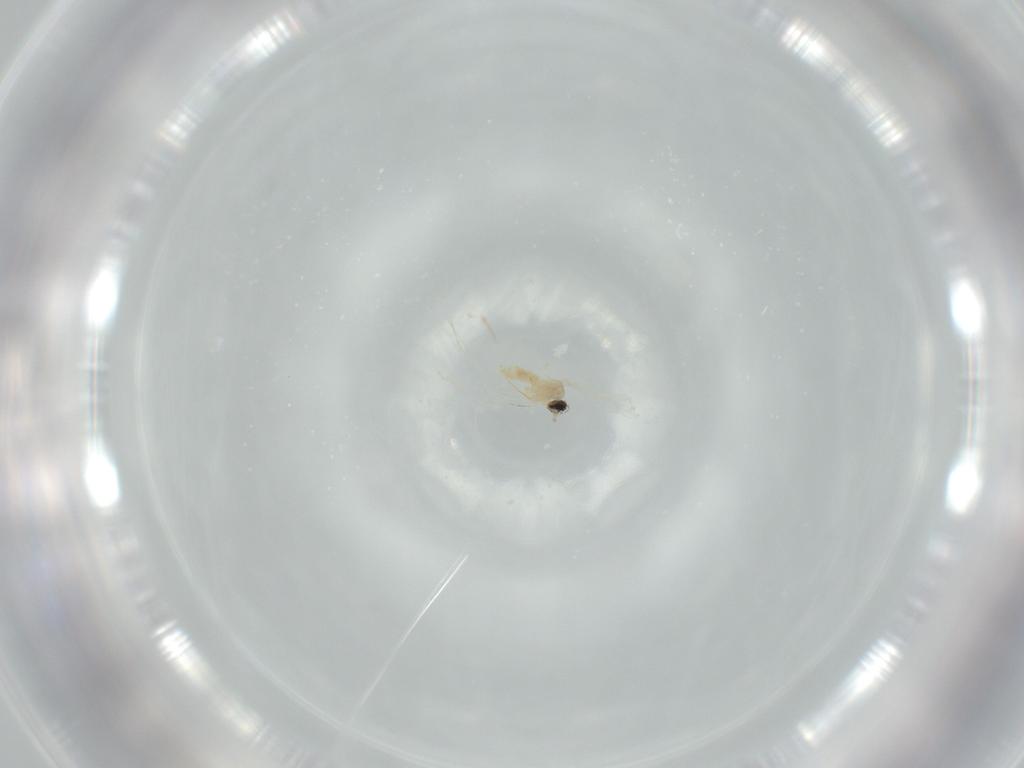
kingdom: Animalia
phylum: Arthropoda
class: Insecta
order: Diptera
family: Cecidomyiidae
